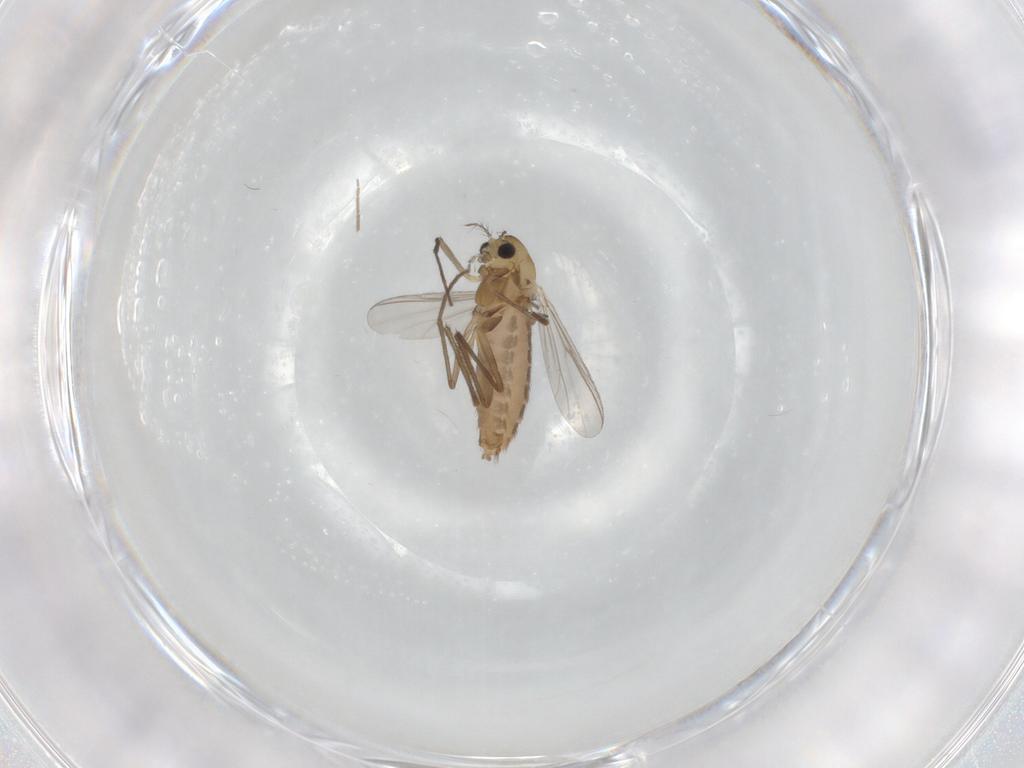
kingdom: Animalia
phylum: Arthropoda
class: Insecta
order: Diptera
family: Chironomidae
